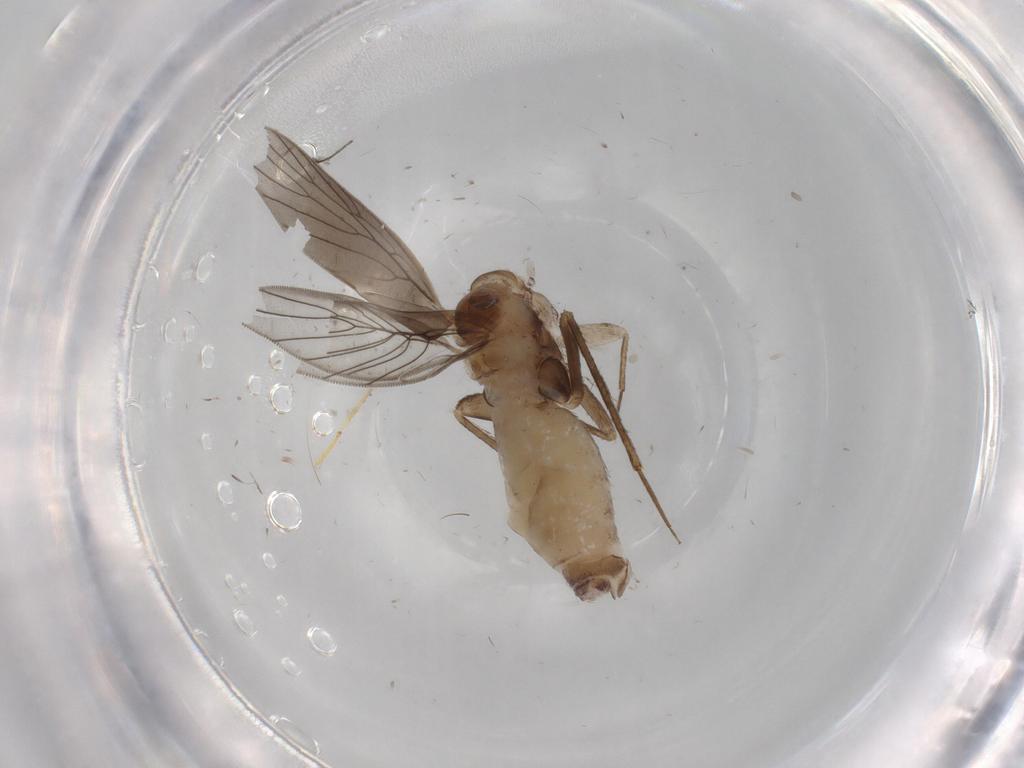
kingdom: Animalia
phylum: Arthropoda
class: Insecta
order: Psocodea
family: Lepidopsocidae
